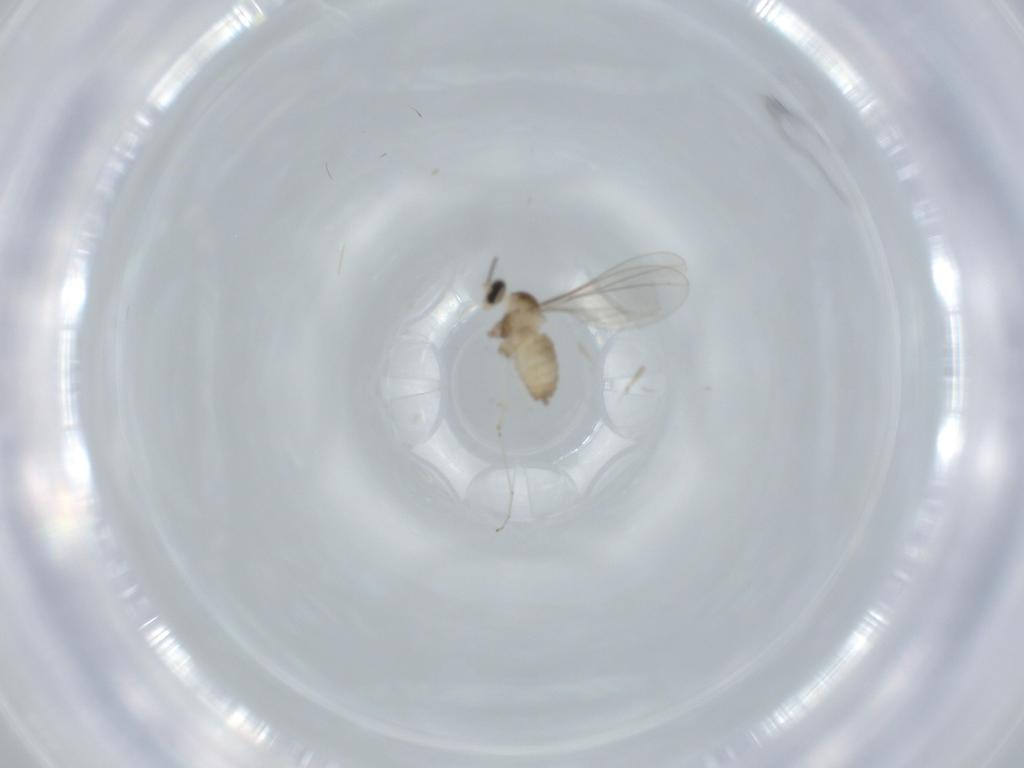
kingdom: Animalia
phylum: Arthropoda
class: Insecta
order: Diptera
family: Cecidomyiidae
